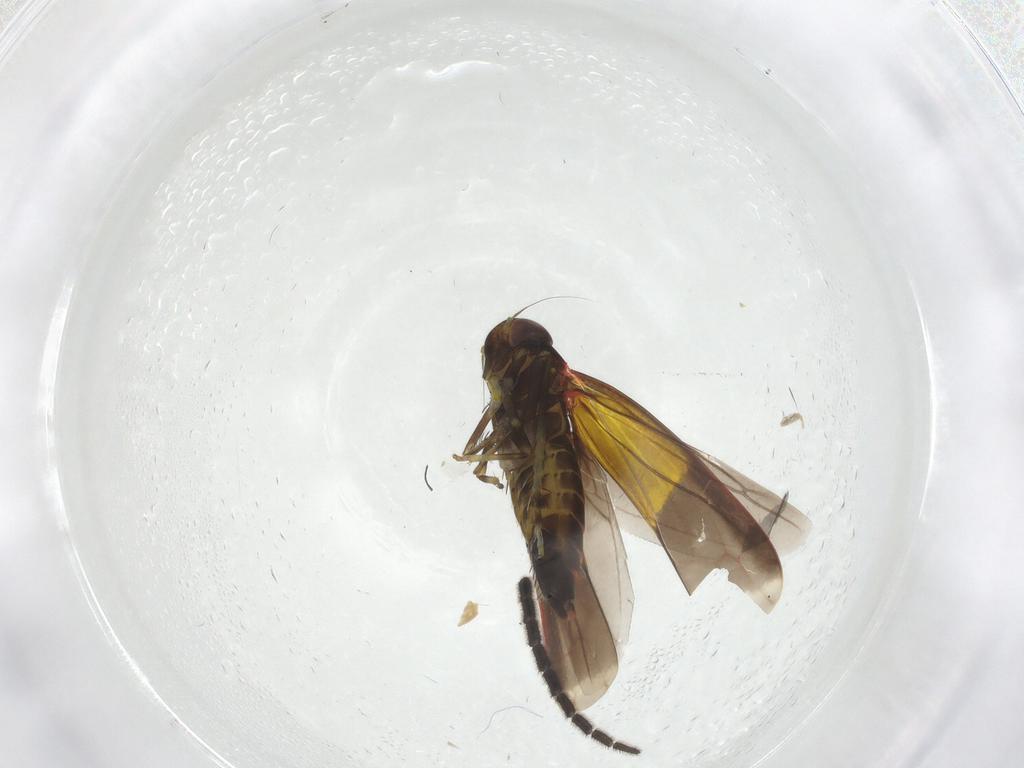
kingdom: Animalia
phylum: Arthropoda
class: Insecta
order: Hemiptera
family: Cicadellidae
